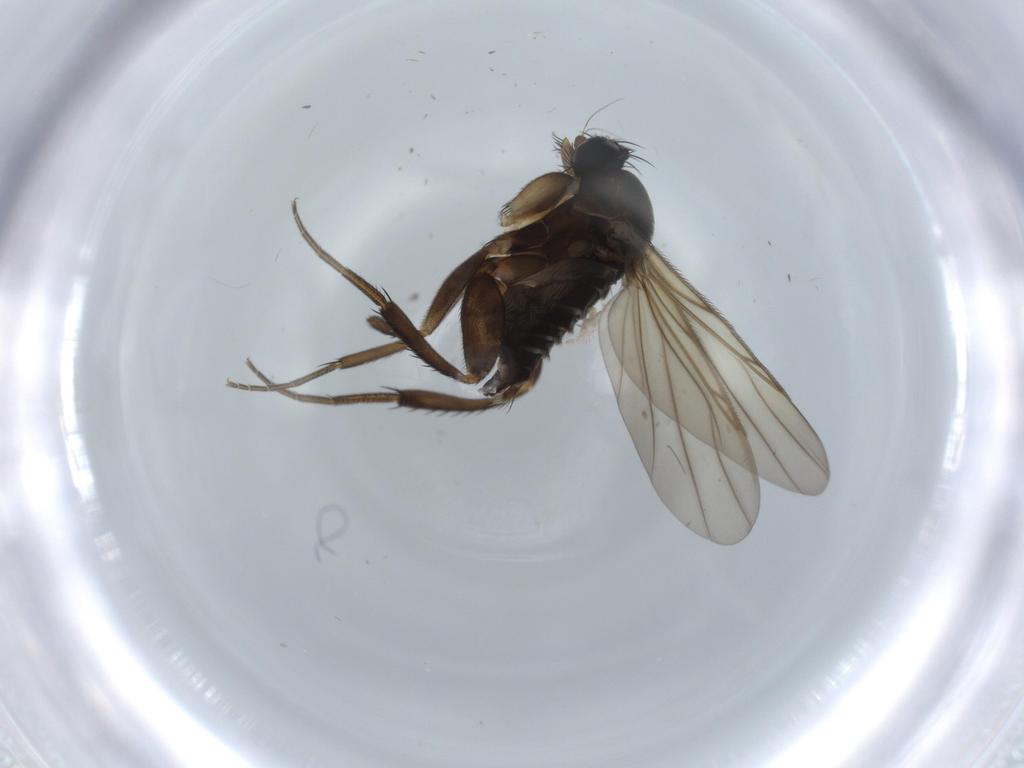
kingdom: Animalia
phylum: Arthropoda
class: Insecta
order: Diptera
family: Phoridae
